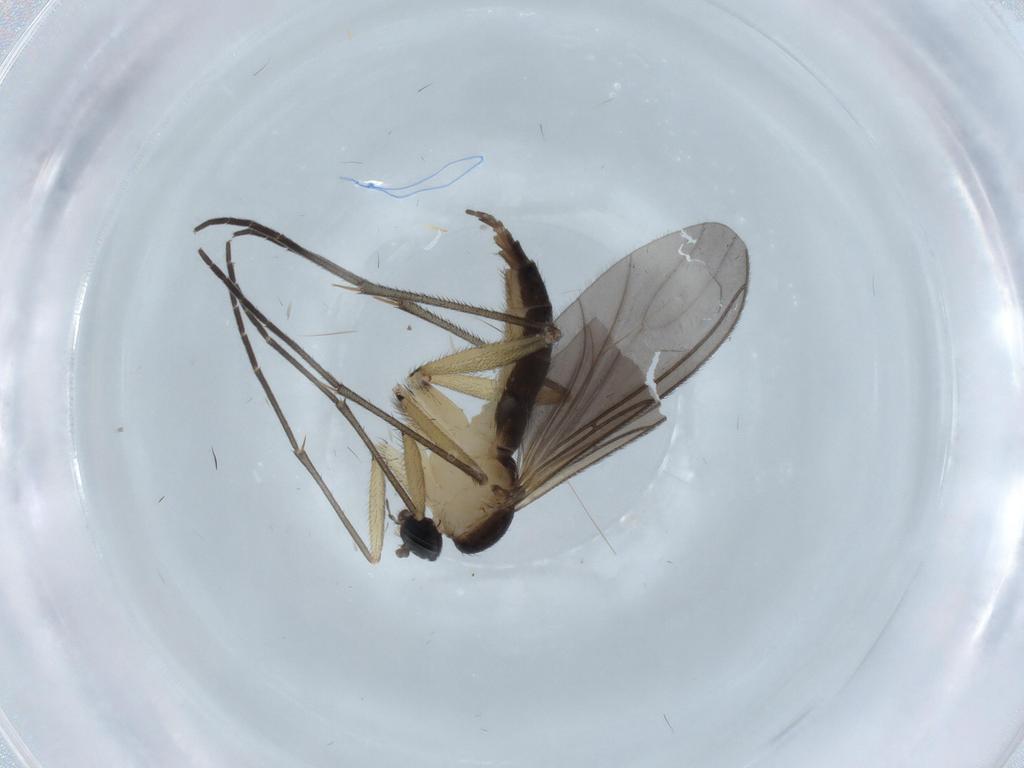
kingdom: Animalia
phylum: Arthropoda
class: Insecta
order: Diptera
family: Sciaridae
